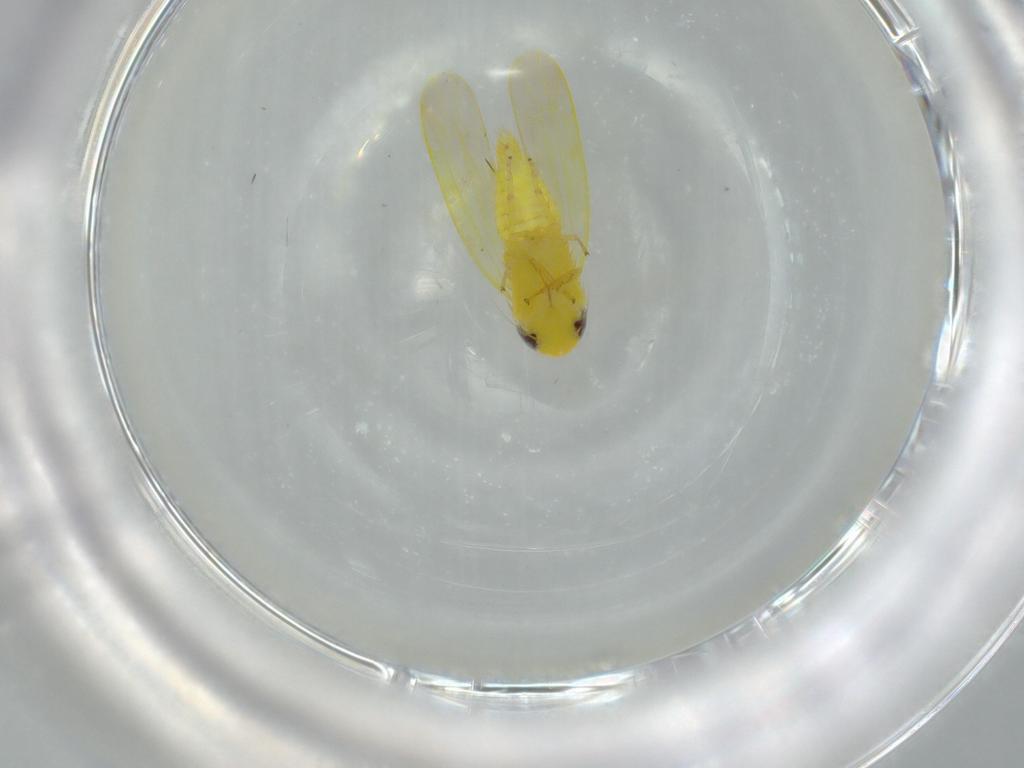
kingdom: Animalia
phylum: Arthropoda
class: Insecta
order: Hemiptera
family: Cicadellidae
